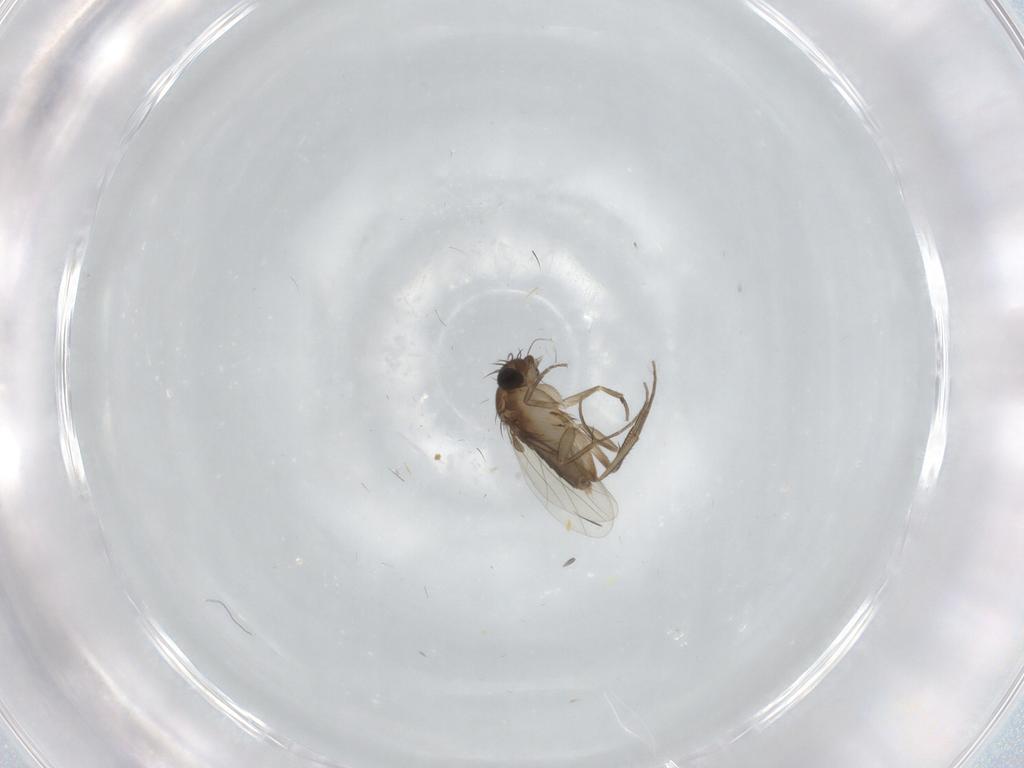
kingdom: Animalia
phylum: Arthropoda
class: Insecta
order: Diptera
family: Phoridae
